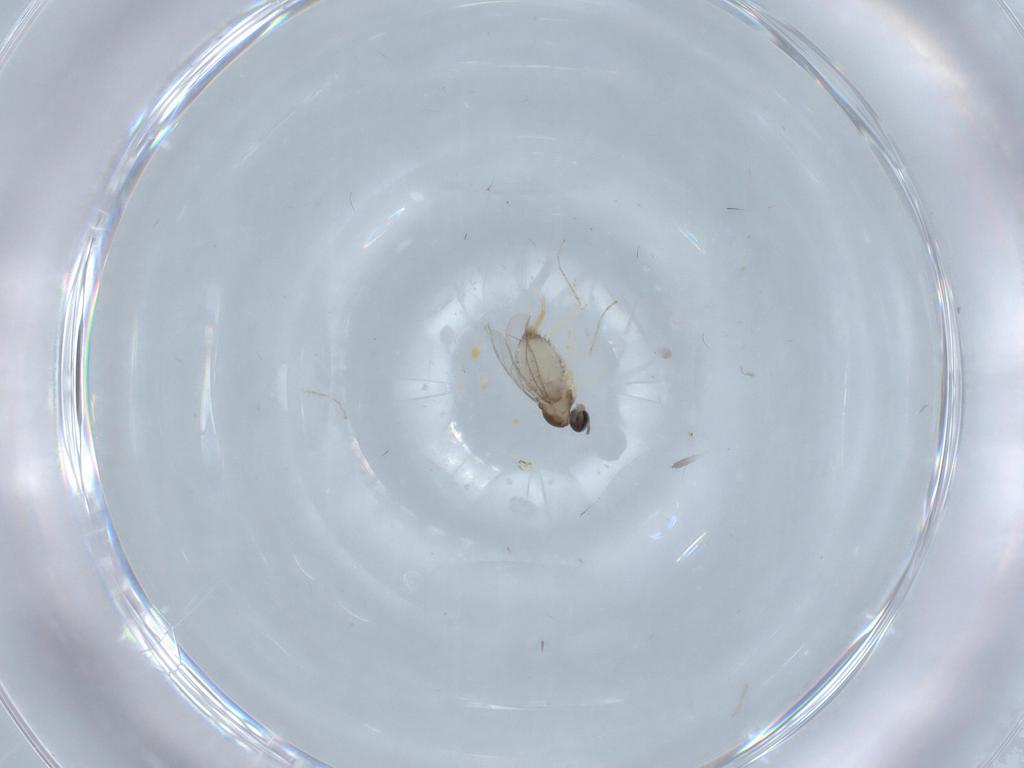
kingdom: Animalia
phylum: Arthropoda
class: Insecta
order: Diptera
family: Cecidomyiidae
